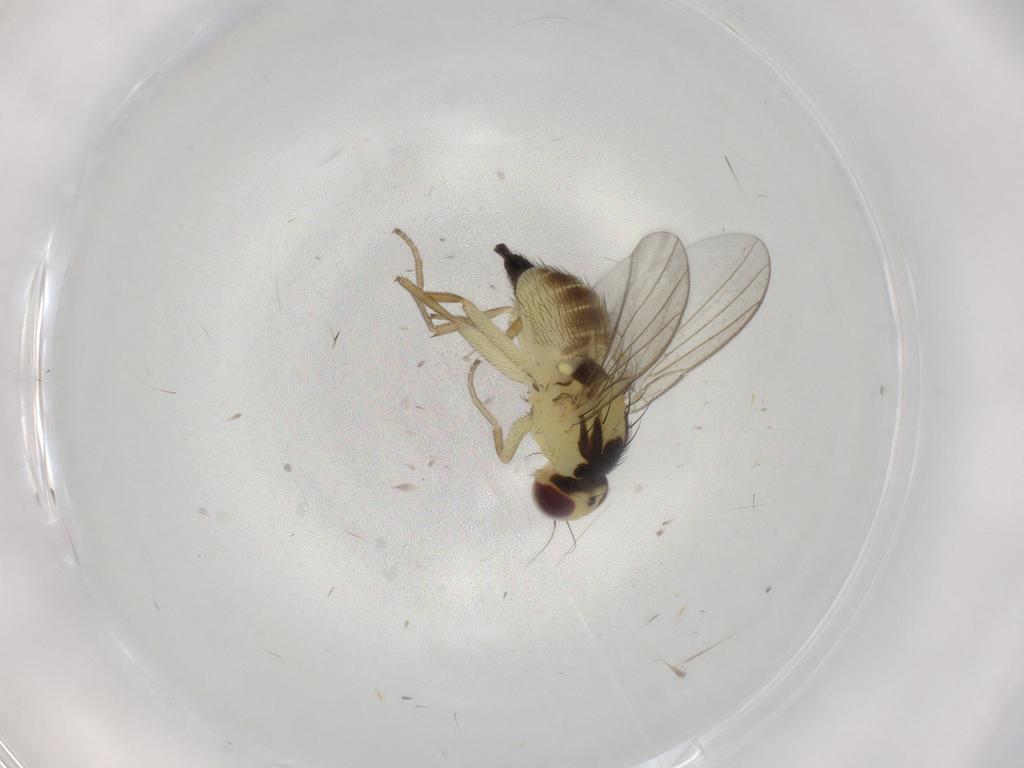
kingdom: Animalia
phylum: Arthropoda
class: Insecta
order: Diptera
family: Agromyzidae
